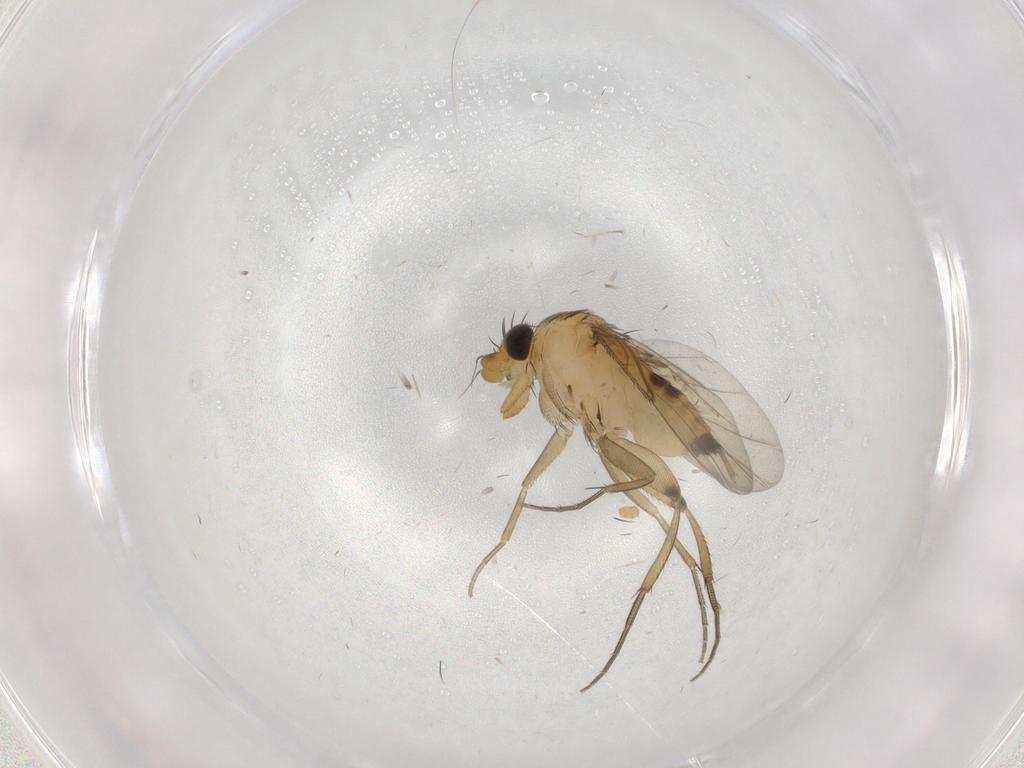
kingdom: Animalia
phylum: Arthropoda
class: Insecta
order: Diptera
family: Phoridae
